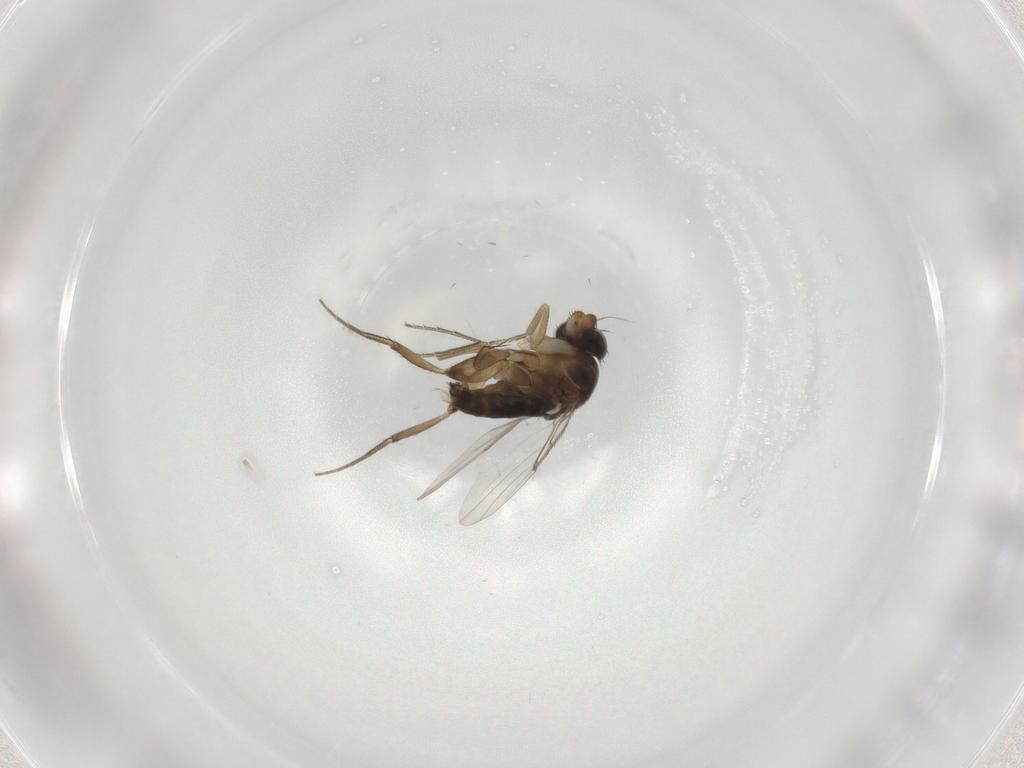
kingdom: Animalia
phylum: Arthropoda
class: Insecta
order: Diptera
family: Phoridae
